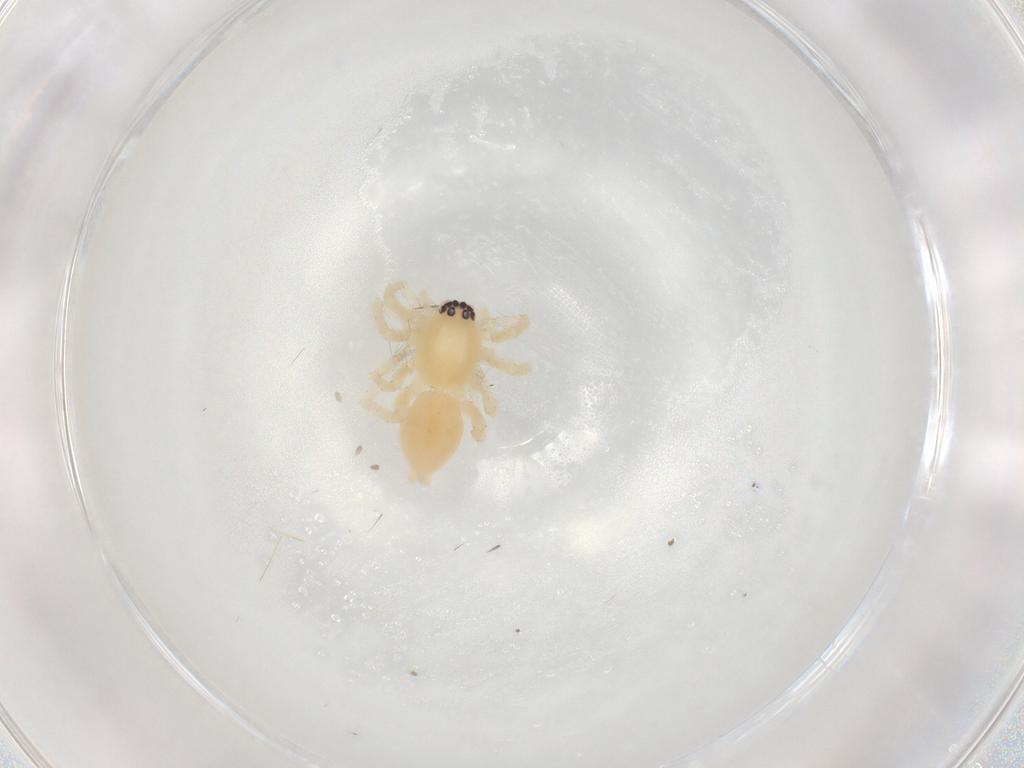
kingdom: Animalia
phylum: Arthropoda
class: Arachnida
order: Araneae
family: Clubionidae
